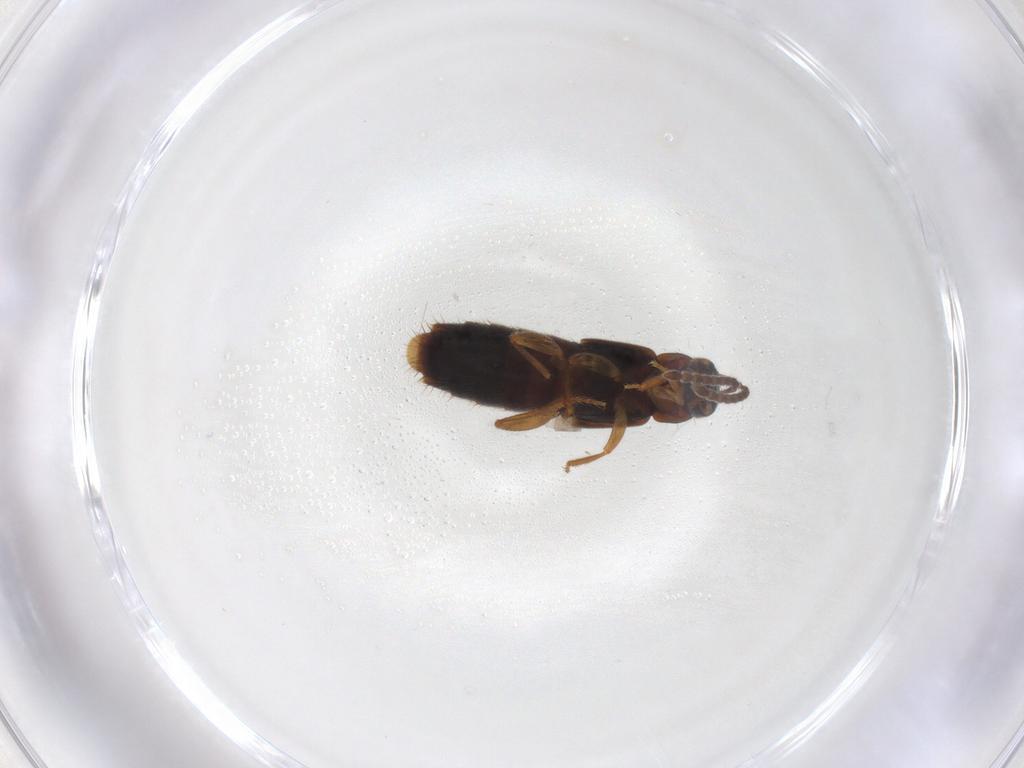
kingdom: Animalia
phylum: Arthropoda
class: Insecta
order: Coleoptera
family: Staphylinidae
